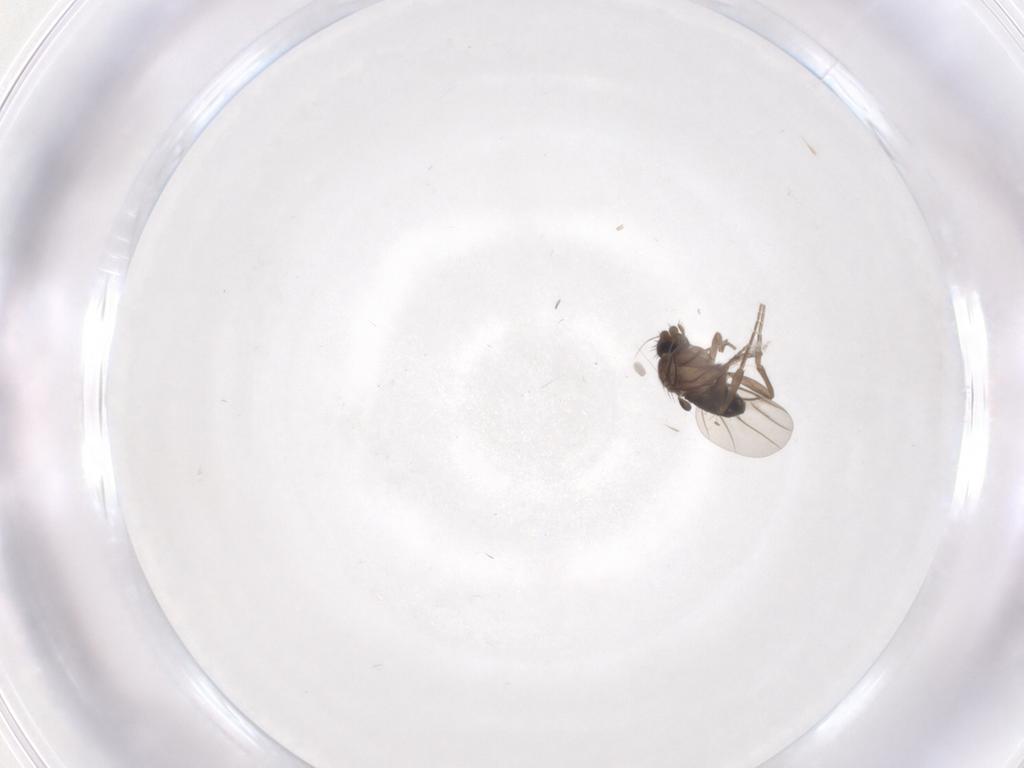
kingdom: Animalia
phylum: Arthropoda
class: Insecta
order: Diptera
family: Phoridae
